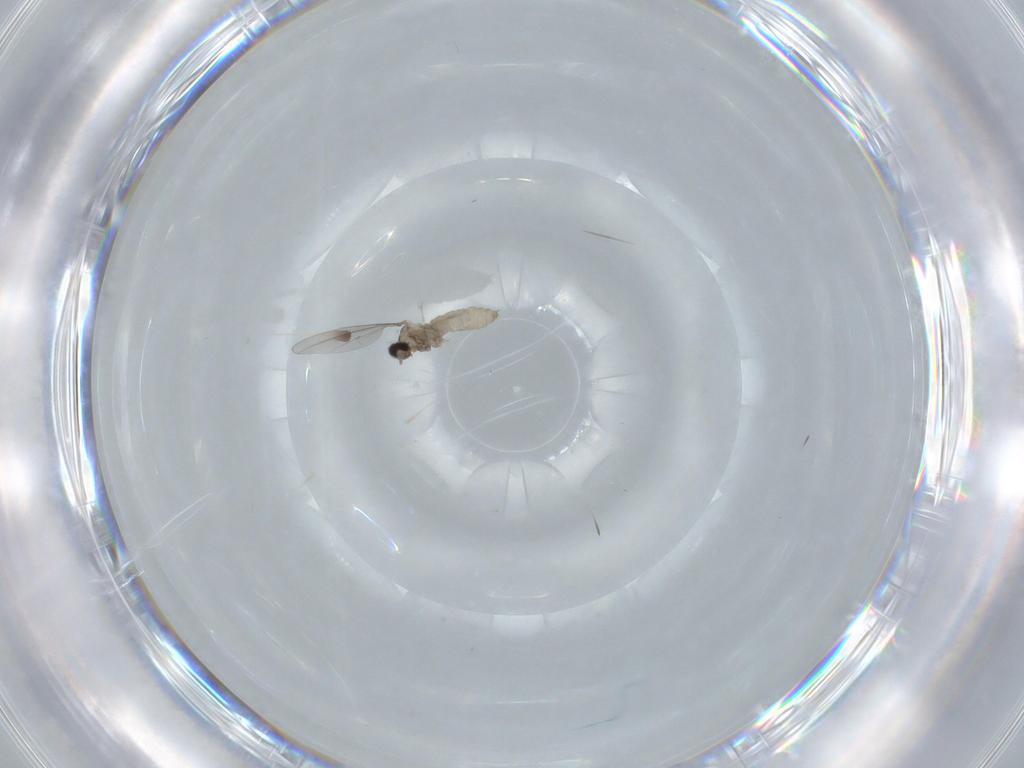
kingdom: Animalia
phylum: Arthropoda
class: Insecta
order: Diptera
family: Cecidomyiidae
